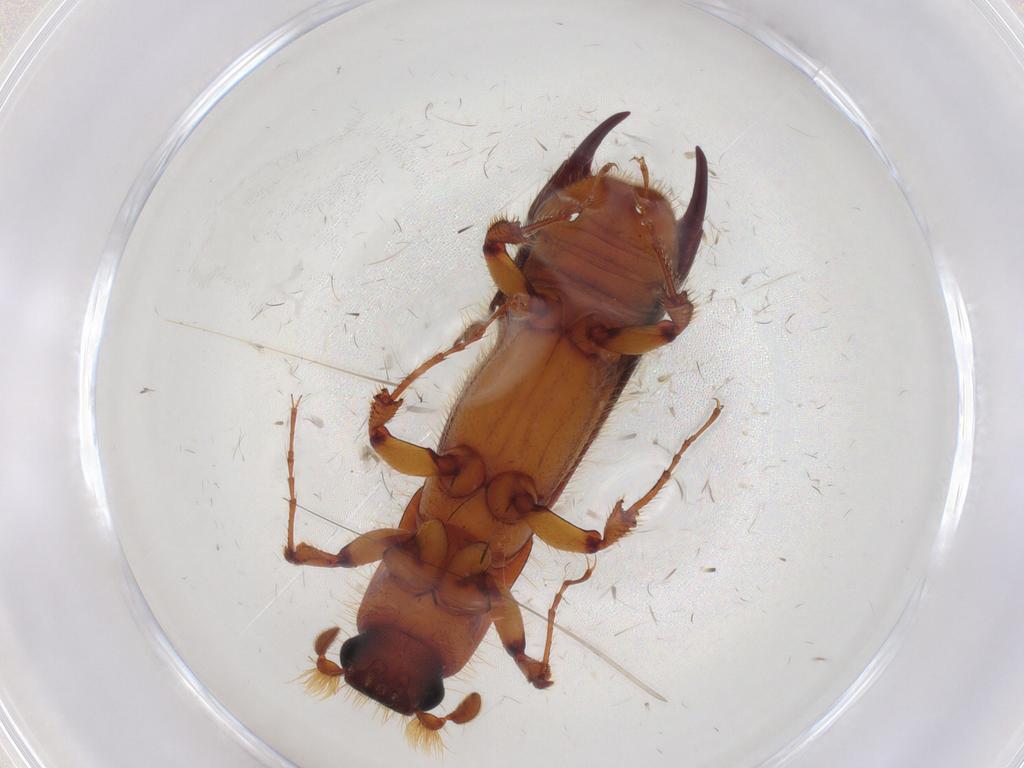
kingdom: Animalia
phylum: Arthropoda
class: Insecta
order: Coleoptera
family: Curculionidae
